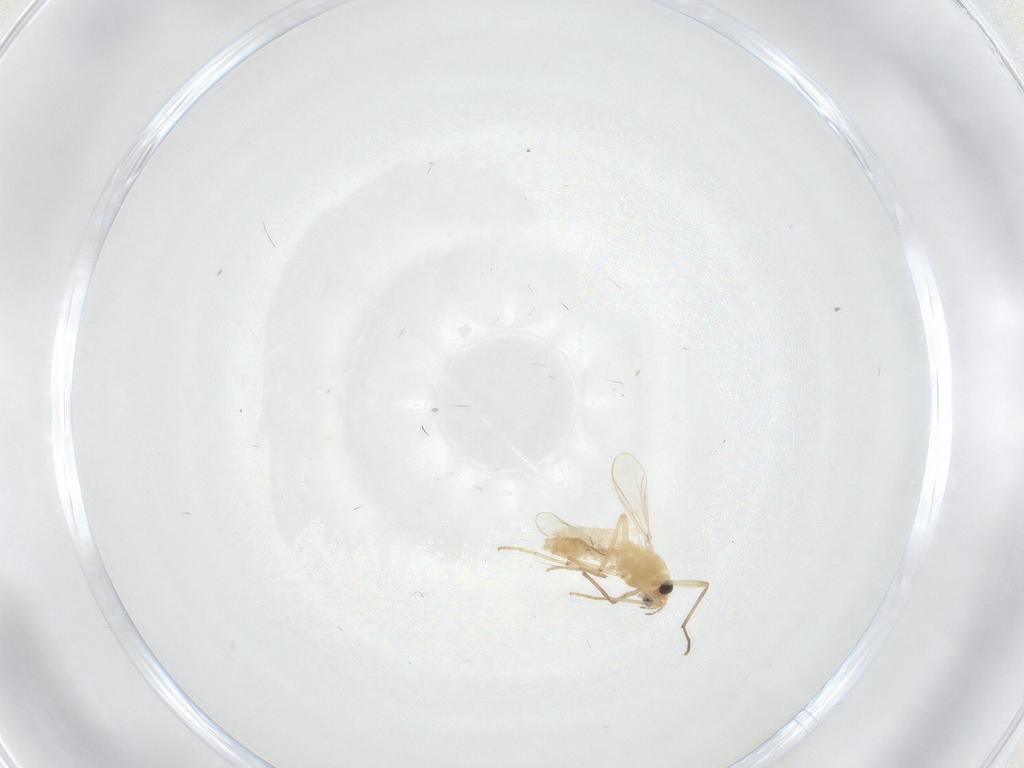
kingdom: Animalia
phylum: Arthropoda
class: Insecta
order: Diptera
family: Chironomidae
